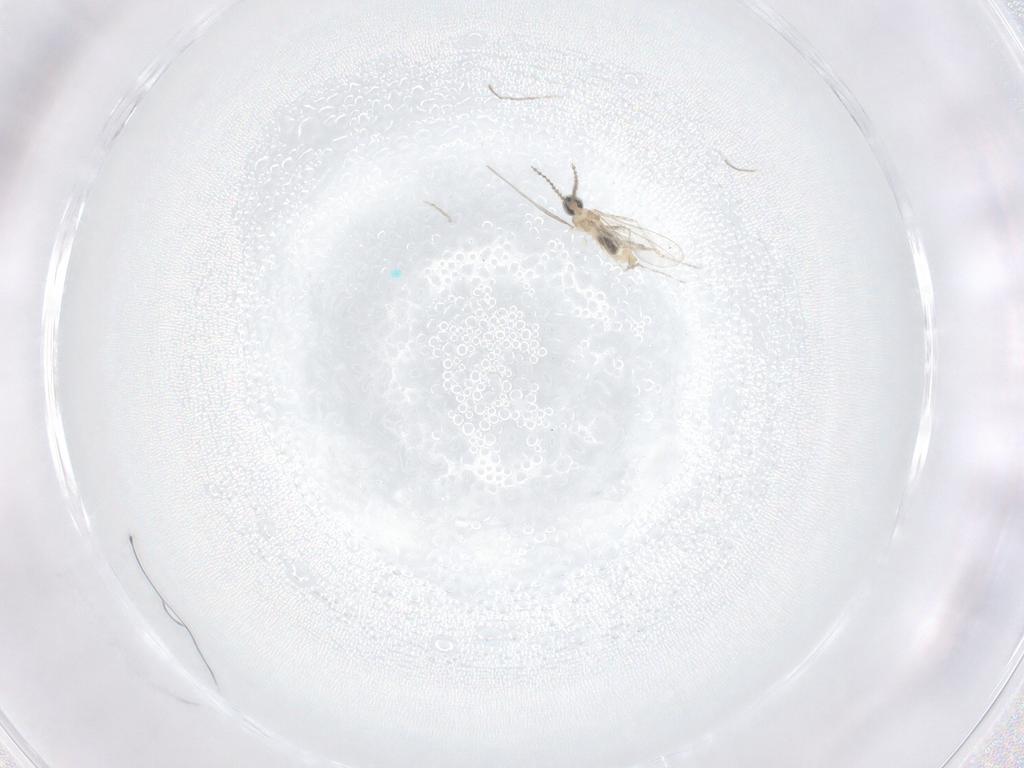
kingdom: Animalia
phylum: Arthropoda
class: Insecta
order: Diptera
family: Cecidomyiidae
